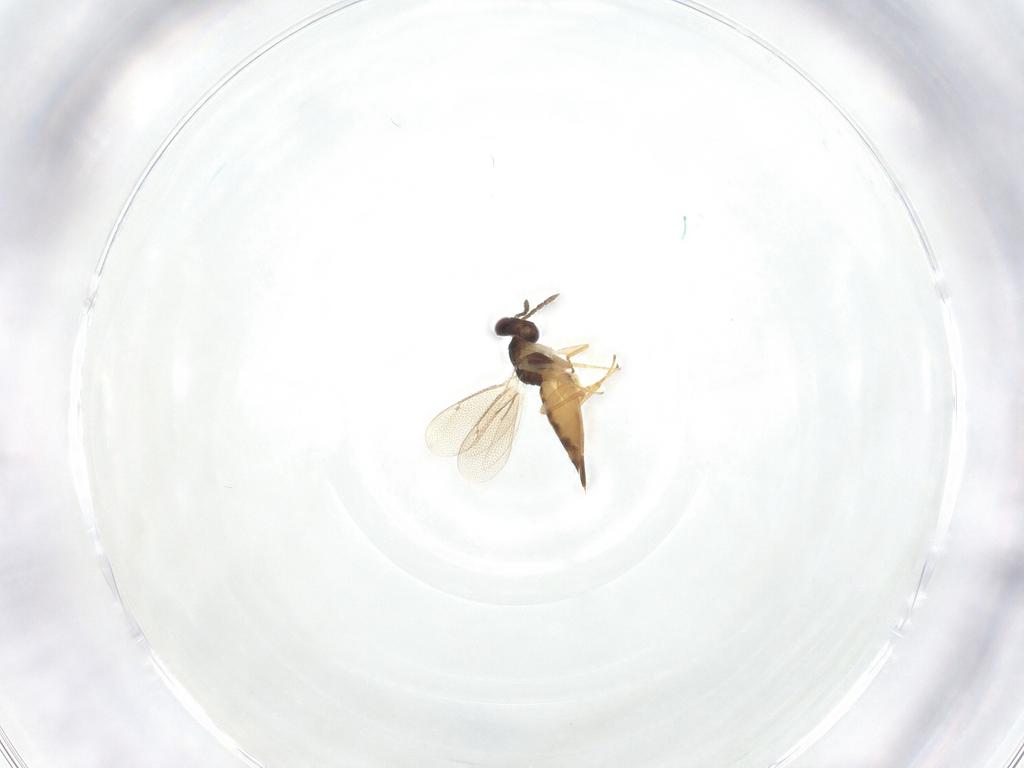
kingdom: Animalia
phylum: Arthropoda
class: Insecta
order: Hymenoptera
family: Eulophidae
